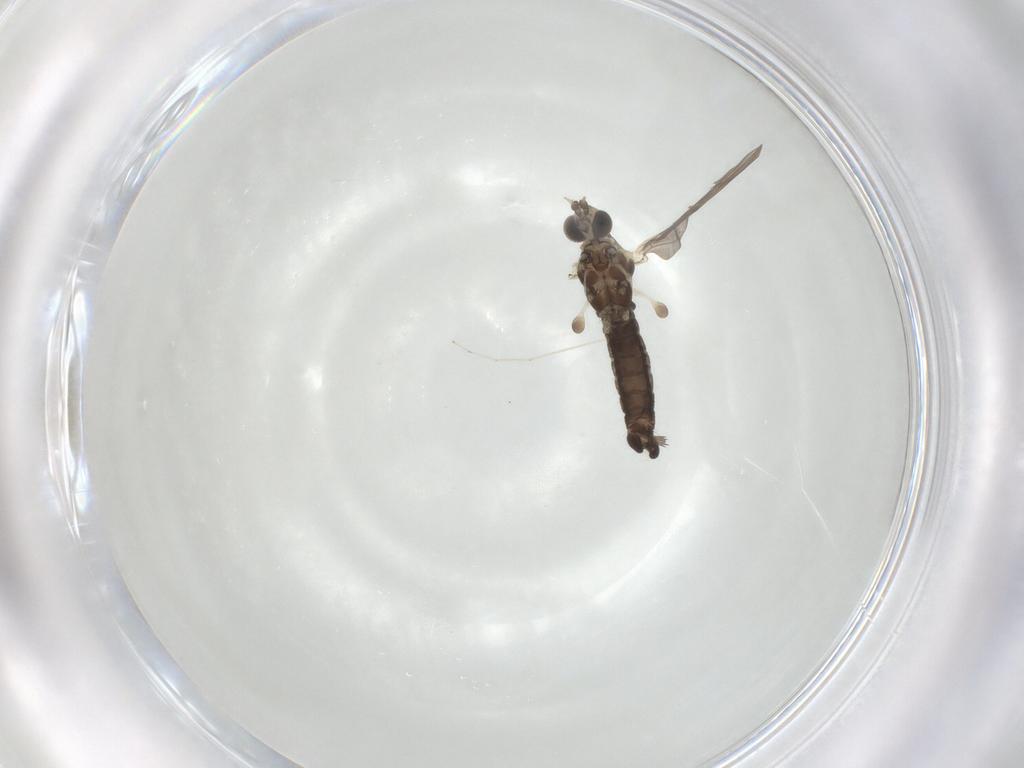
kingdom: Animalia
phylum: Arthropoda
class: Insecta
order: Diptera
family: Limoniidae
